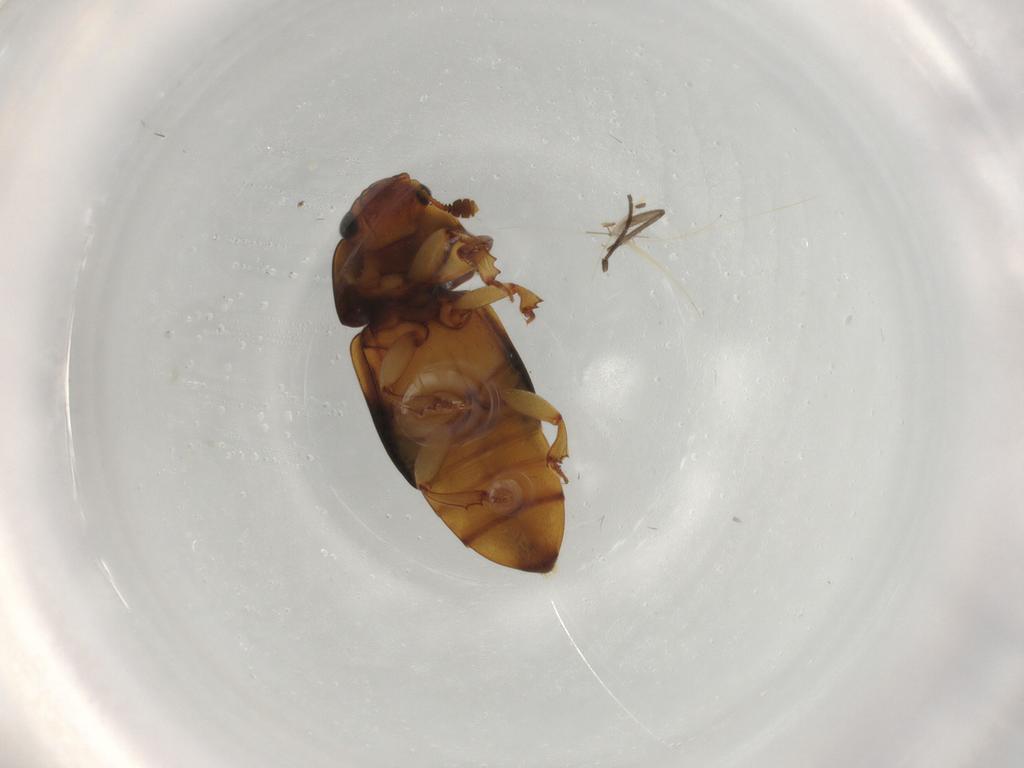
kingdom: Animalia
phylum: Arthropoda
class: Insecta
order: Coleoptera
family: Nitidulidae
